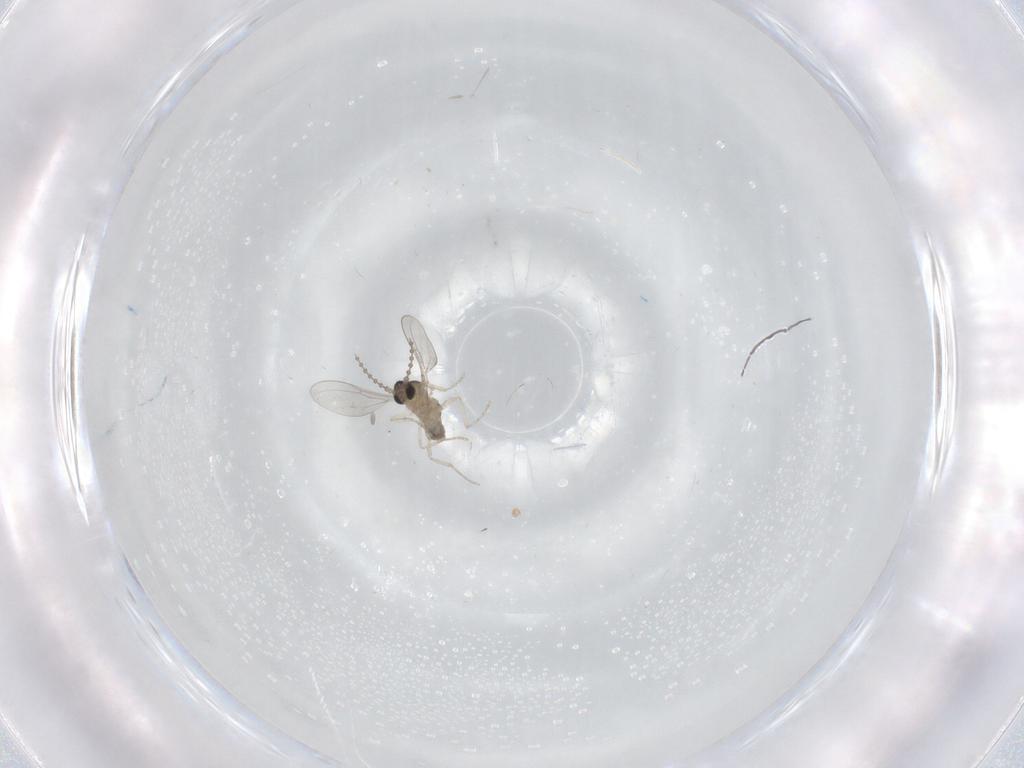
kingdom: Animalia
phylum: Arthropoda
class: Insecta
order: Diptera
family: Cecidomyiidae
